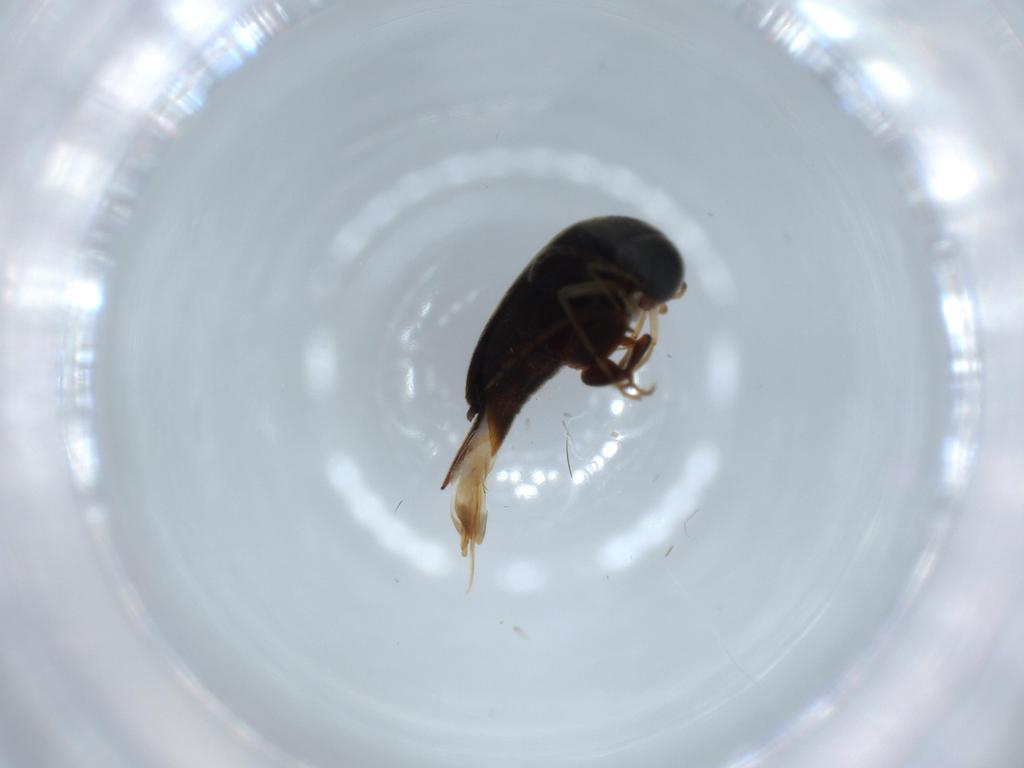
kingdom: Animalia
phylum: Arthropoda
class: Insecta
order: Coleoptera
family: Mordellidae
